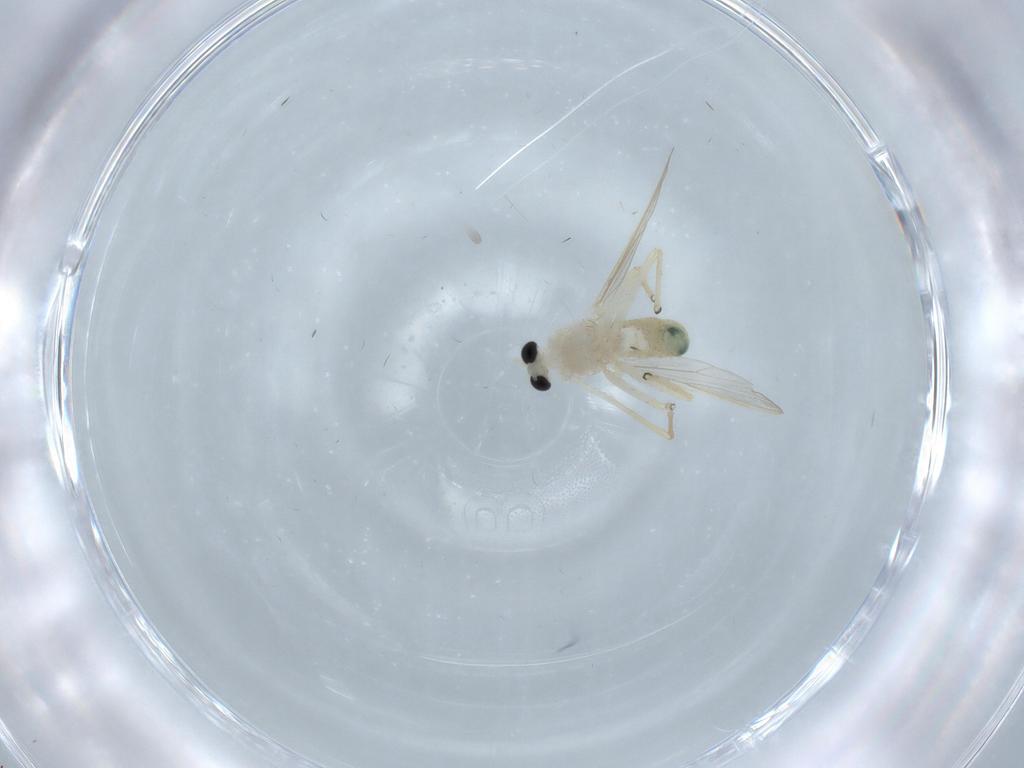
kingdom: Animalia
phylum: Arthropoda
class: Insecta
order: Diptera
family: Chironomidae
